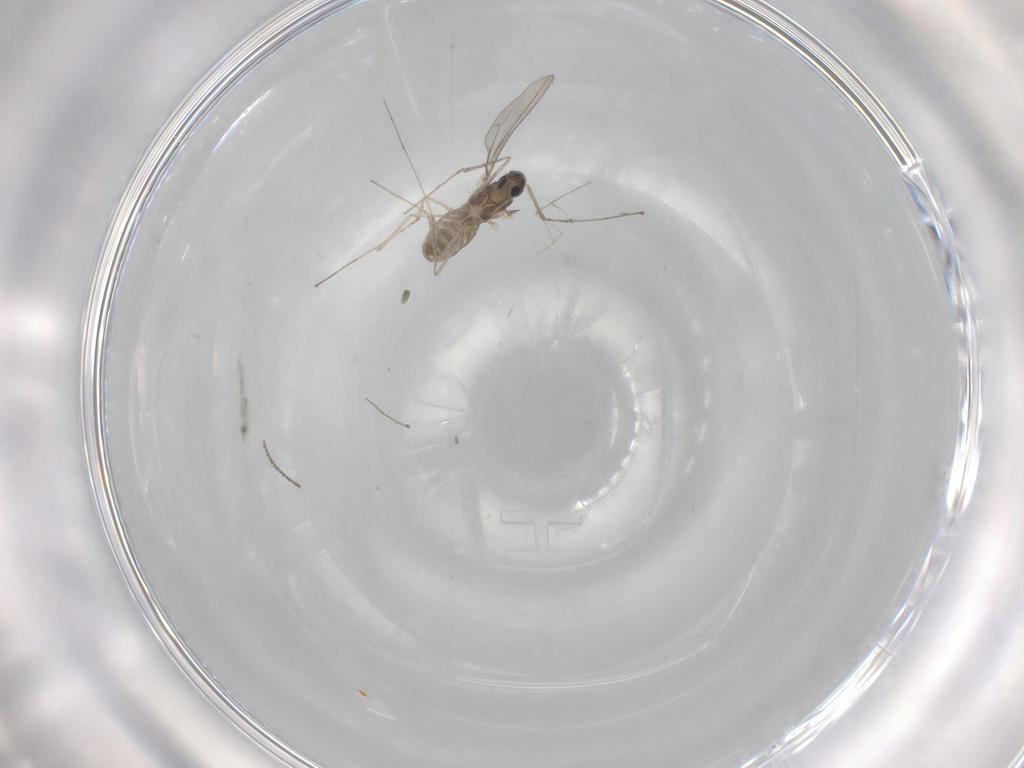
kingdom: Animalia
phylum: Arthropoda
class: Insecta
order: Diptera
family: Cecidomyiidae
